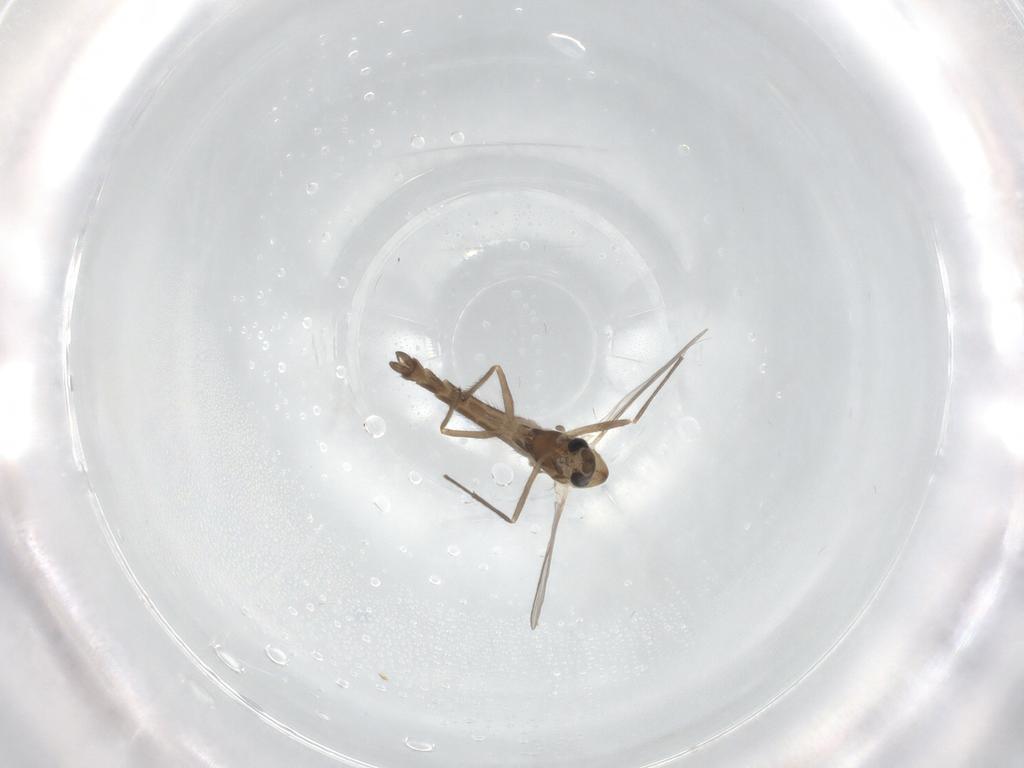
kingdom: Animalia
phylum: Arthropoda
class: Insecta
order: Diptera
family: Chironomidae
